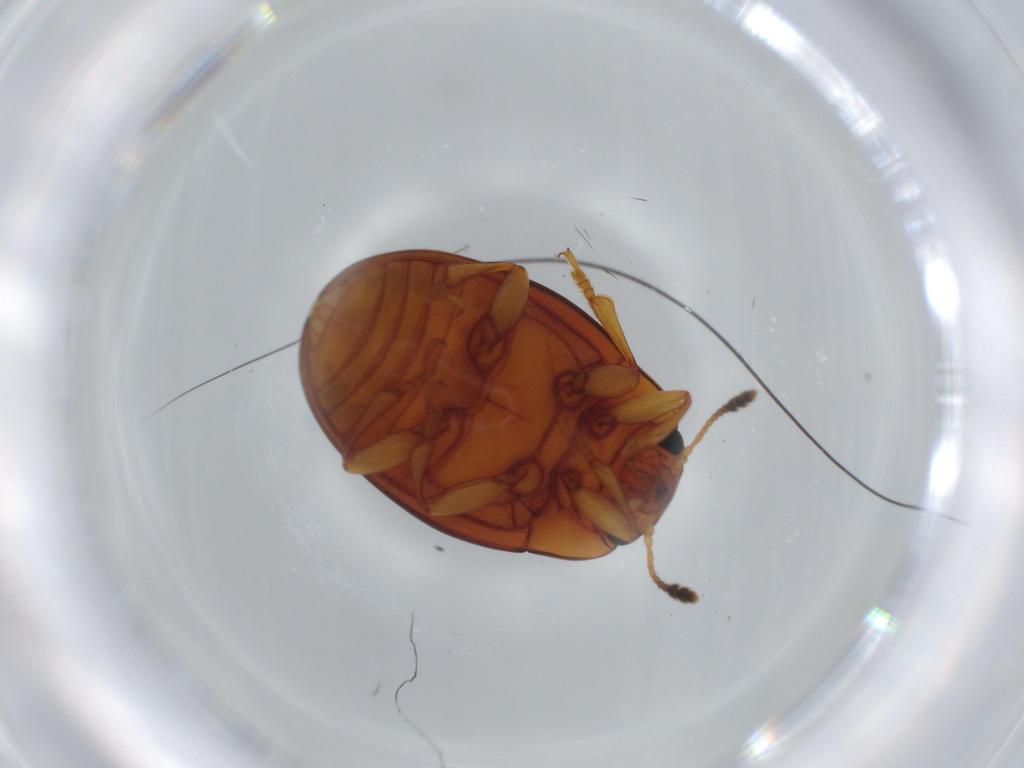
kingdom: Animalia
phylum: Arthropoda
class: Insecta
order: Coleoptera
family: Erotylidae
